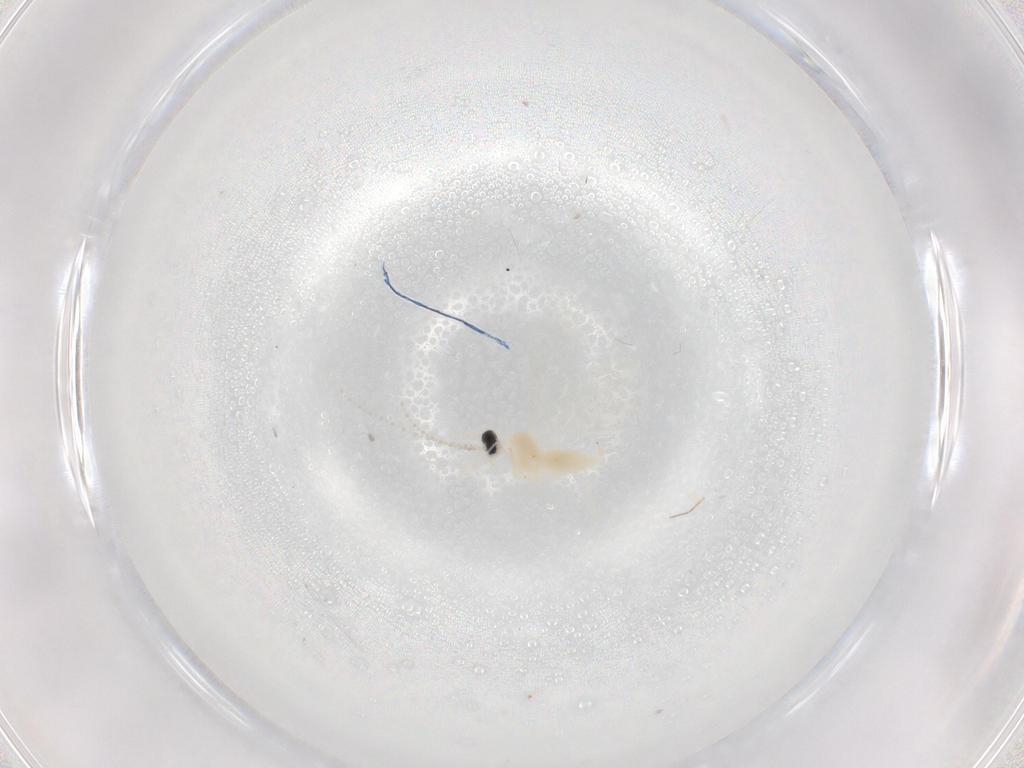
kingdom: Animalia
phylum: Arthropoda
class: Insecta
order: Diptera
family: Cecidomyiidae
